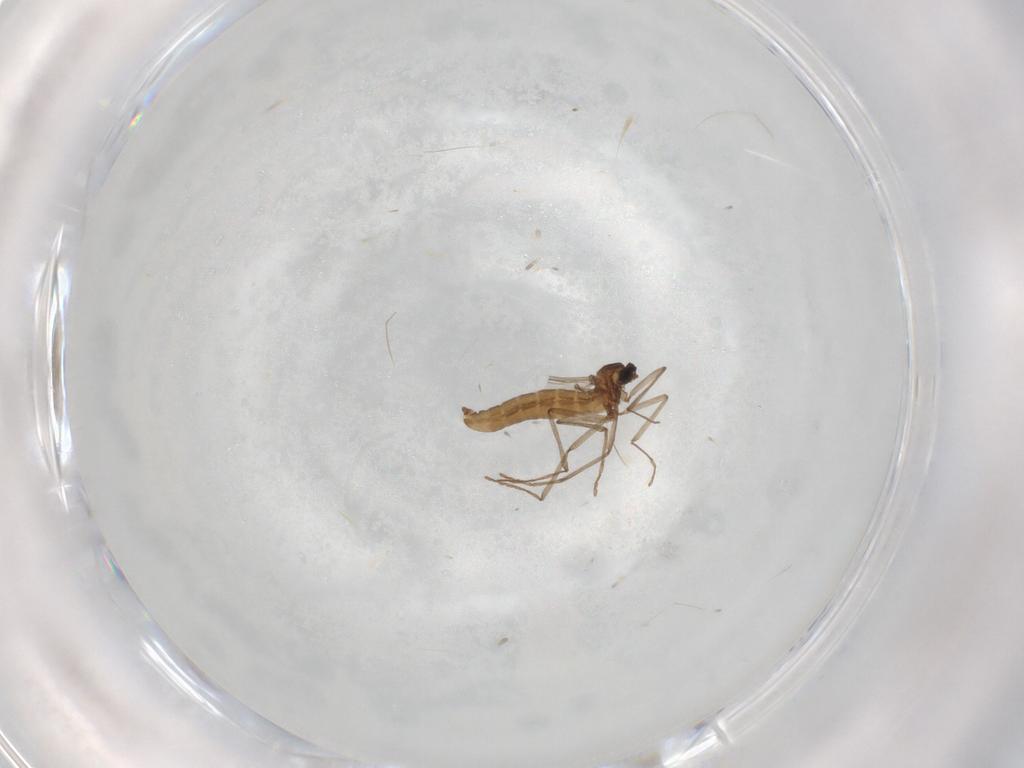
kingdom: Animalia
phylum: Arthropoda
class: Insecta
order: Diptera
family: Cecidomyiidae
